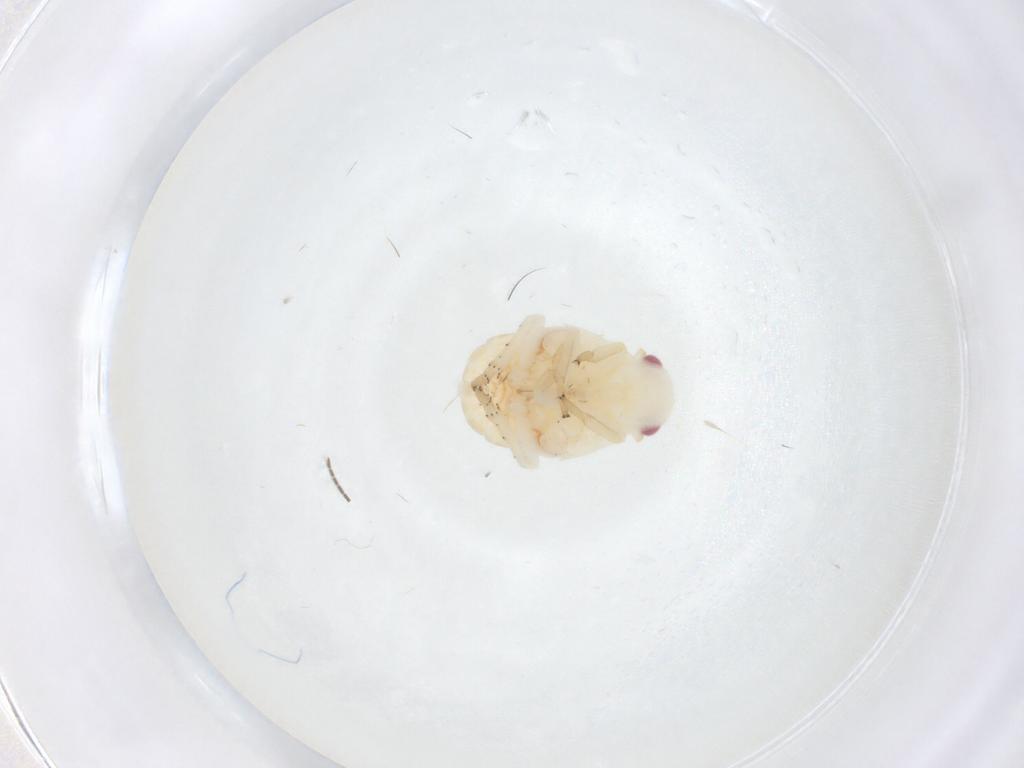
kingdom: Animalia
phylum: Arthropoda
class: Insecta
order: Hemiptera
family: Flatidae
